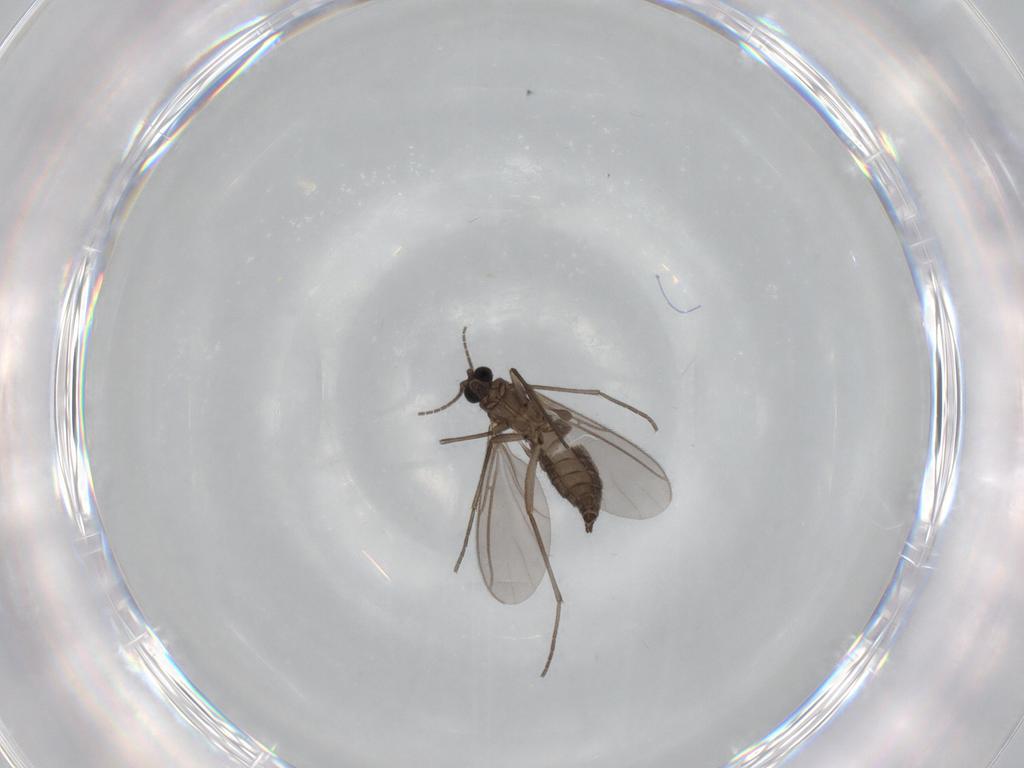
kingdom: Animalia
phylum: Arthropoda
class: Insecta
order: Diptera
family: Sciaridae
